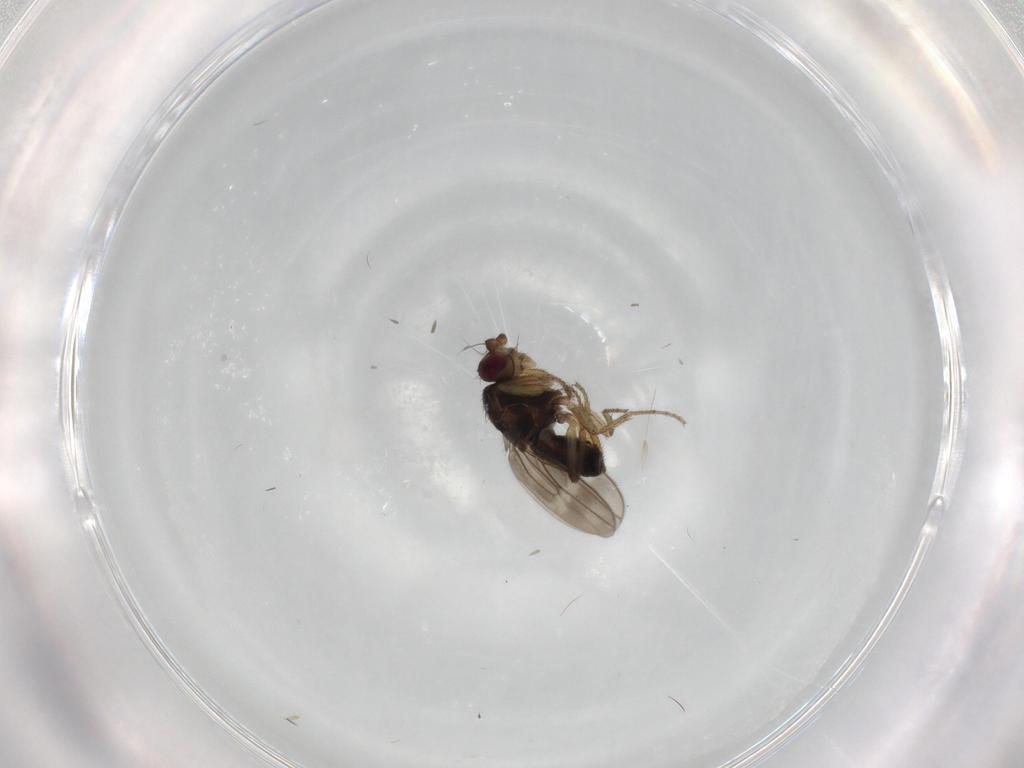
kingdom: Animalia
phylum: Arthropoda
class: Insecta
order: Diptera
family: Sphaeroceridae
